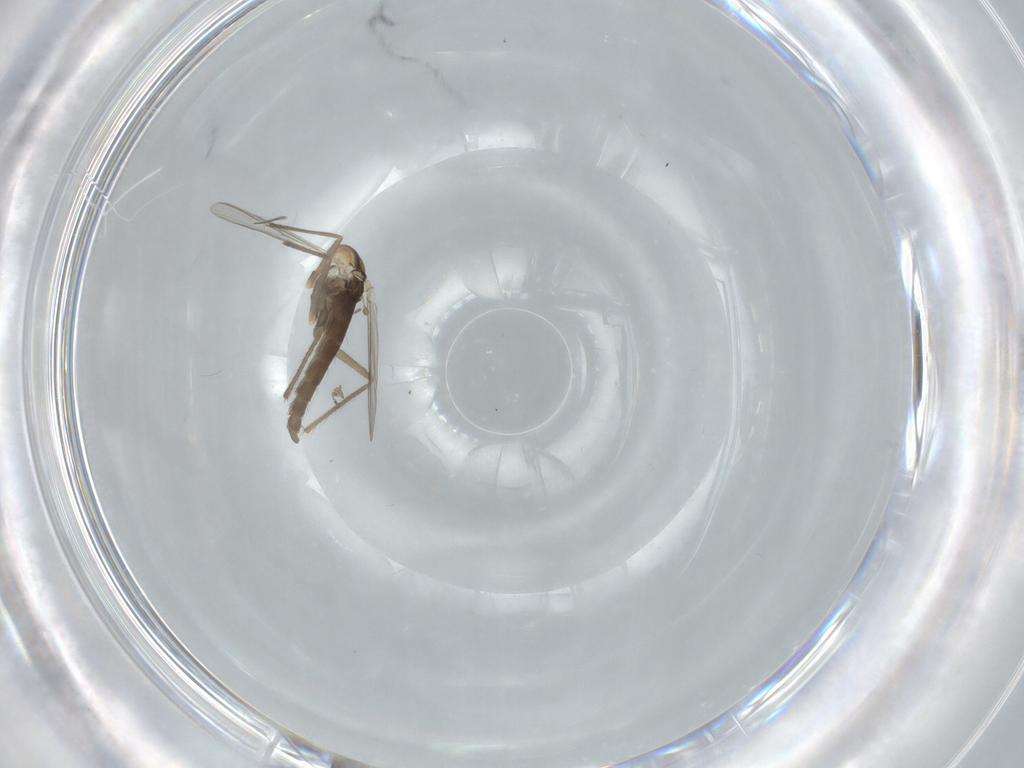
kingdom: Animalia
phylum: Arthropoda
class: Insecta
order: Diptera
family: Chironomidae
